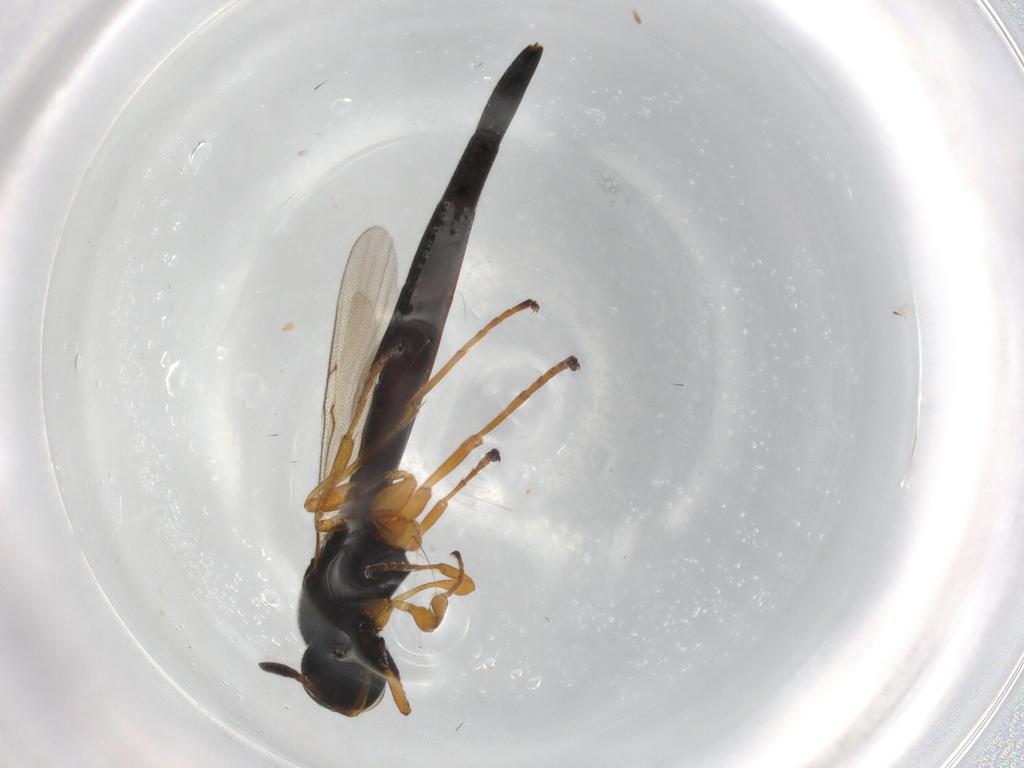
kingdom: Animalia
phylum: Arthropoda
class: Insecta
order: Hymenoptera
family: Scelionidae
